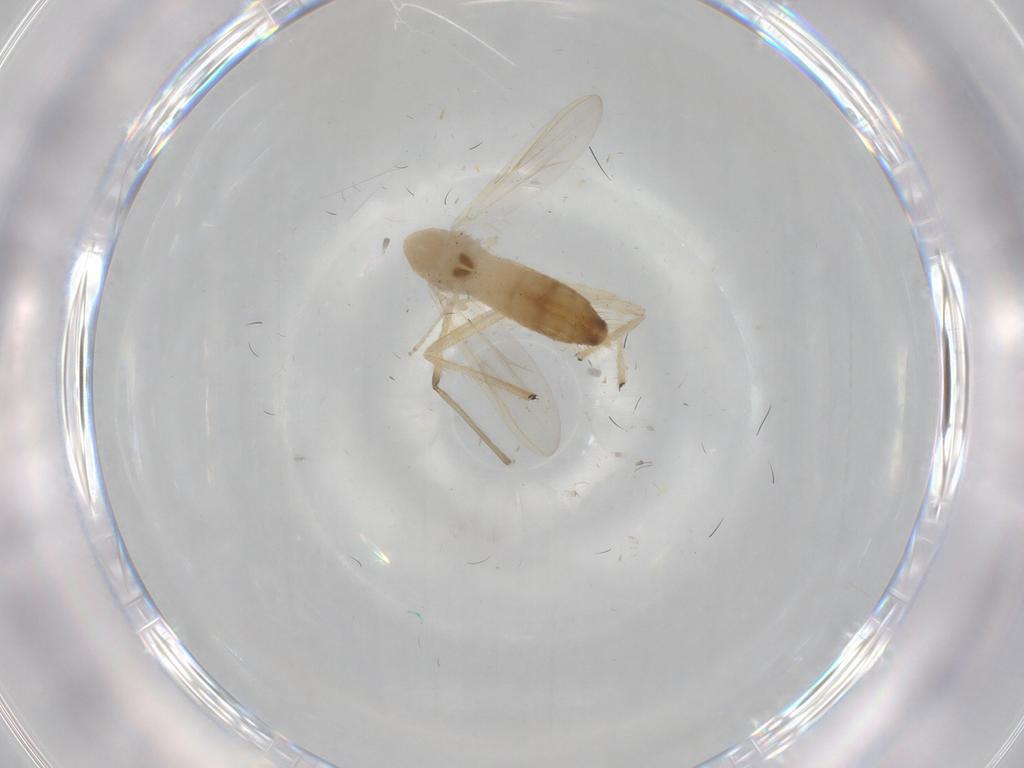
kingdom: Animalia
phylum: Arthropoda
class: Insecta
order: Diptera
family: Chironomidae
